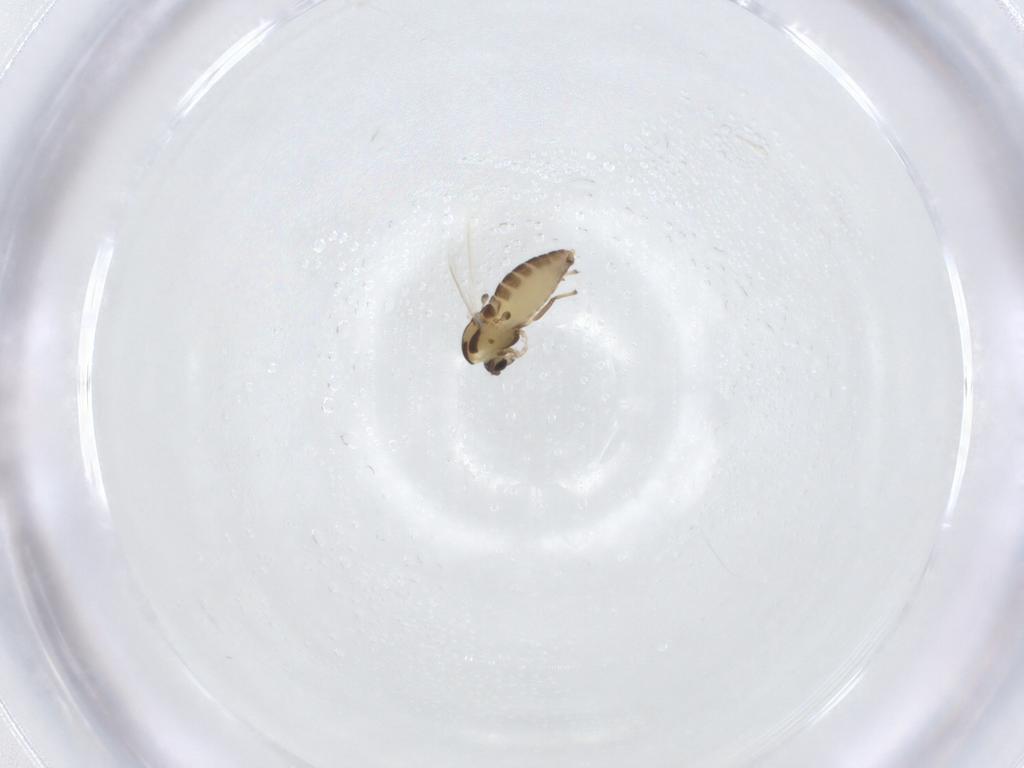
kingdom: Animalia
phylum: Arthropoda
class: Insecta
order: Diptera
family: Chironomidae
